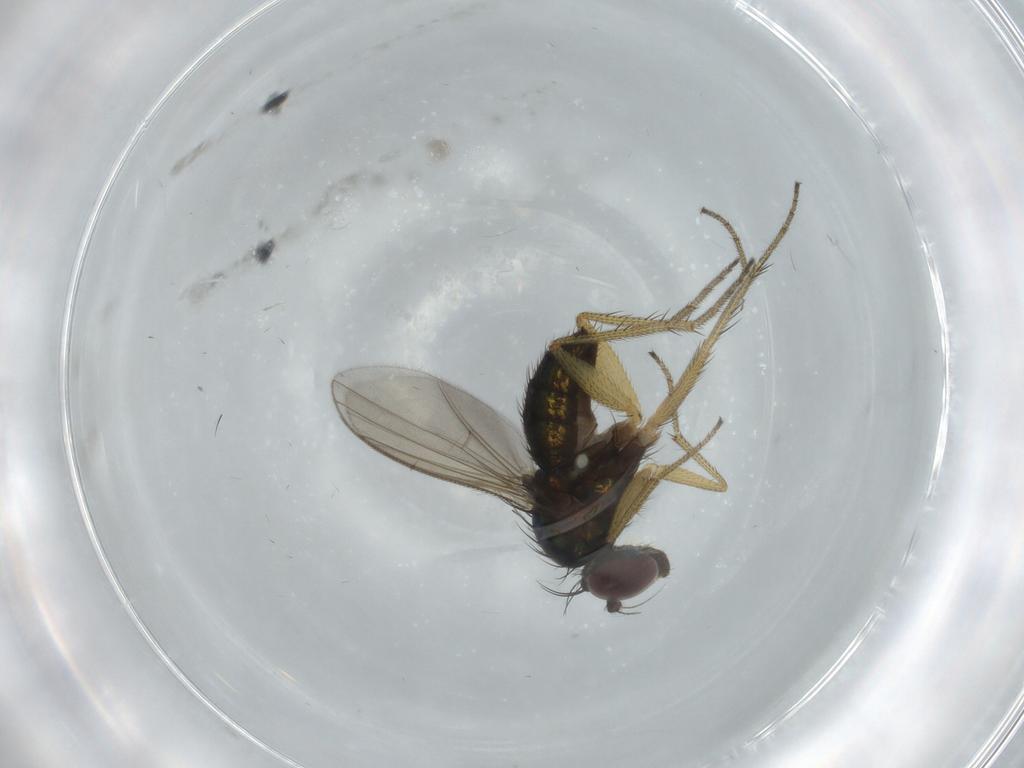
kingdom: Animalia
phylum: Arthropoda
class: Insecta
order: Diptera
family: Dolichopodidae
